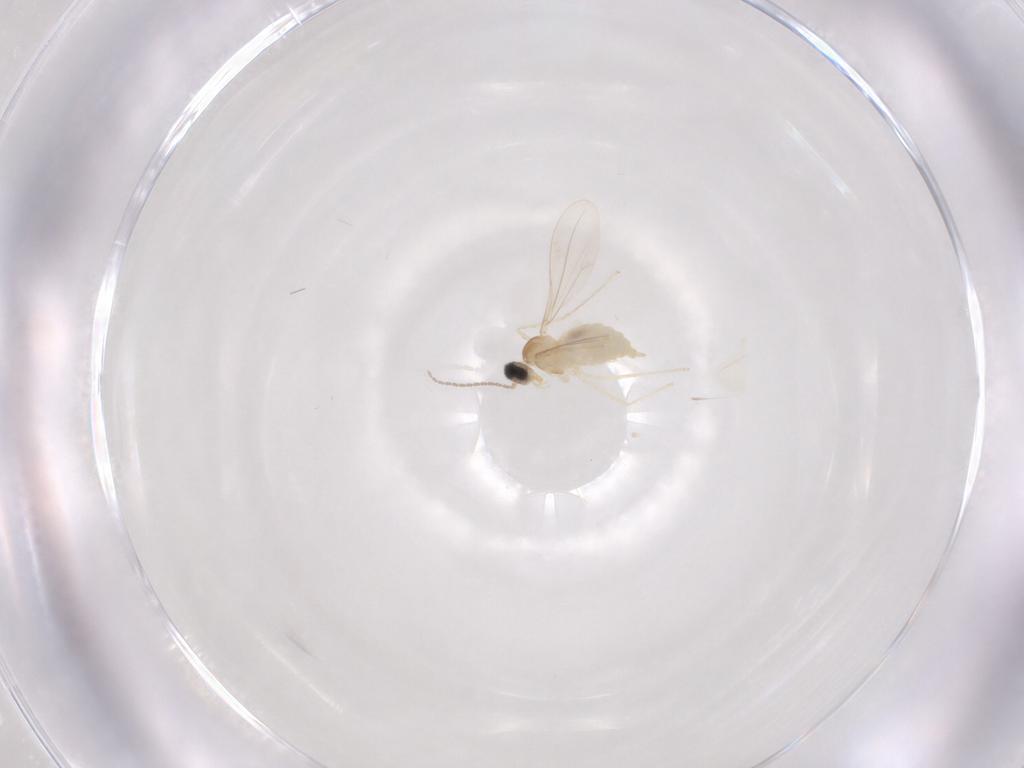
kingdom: Animalia
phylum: Arthropoda
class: Insecta
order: Diptera
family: Cecidomyiidae
